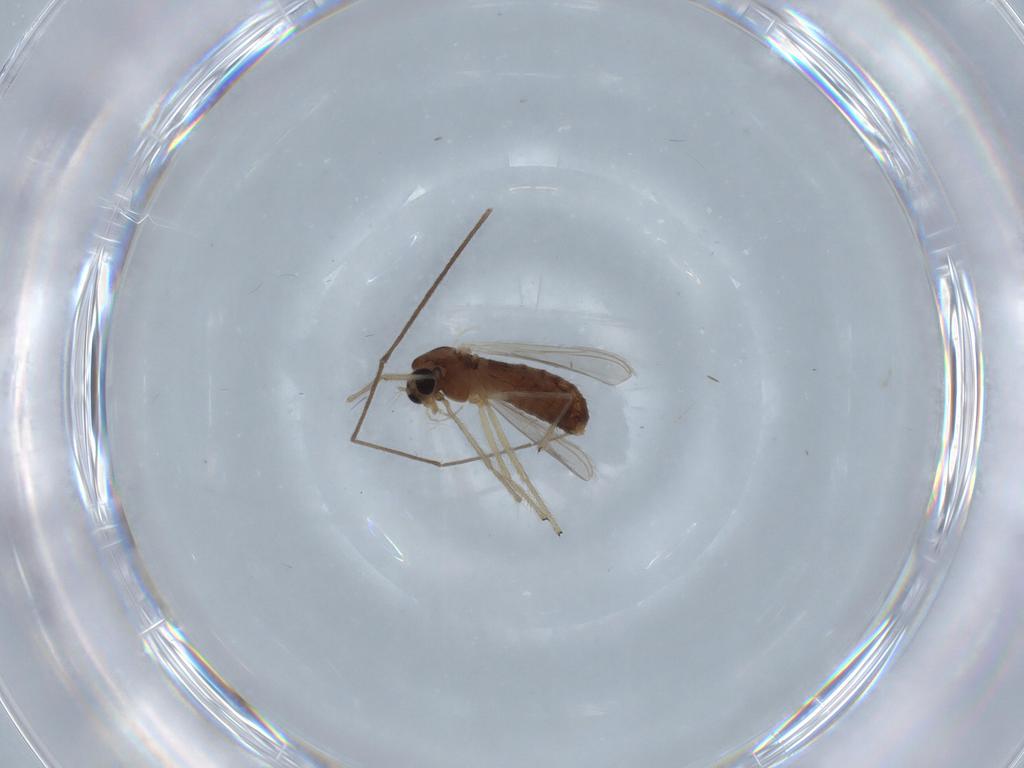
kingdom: Animalia
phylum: Arthropoda
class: Insecta
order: Diptera
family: Chironomidae
